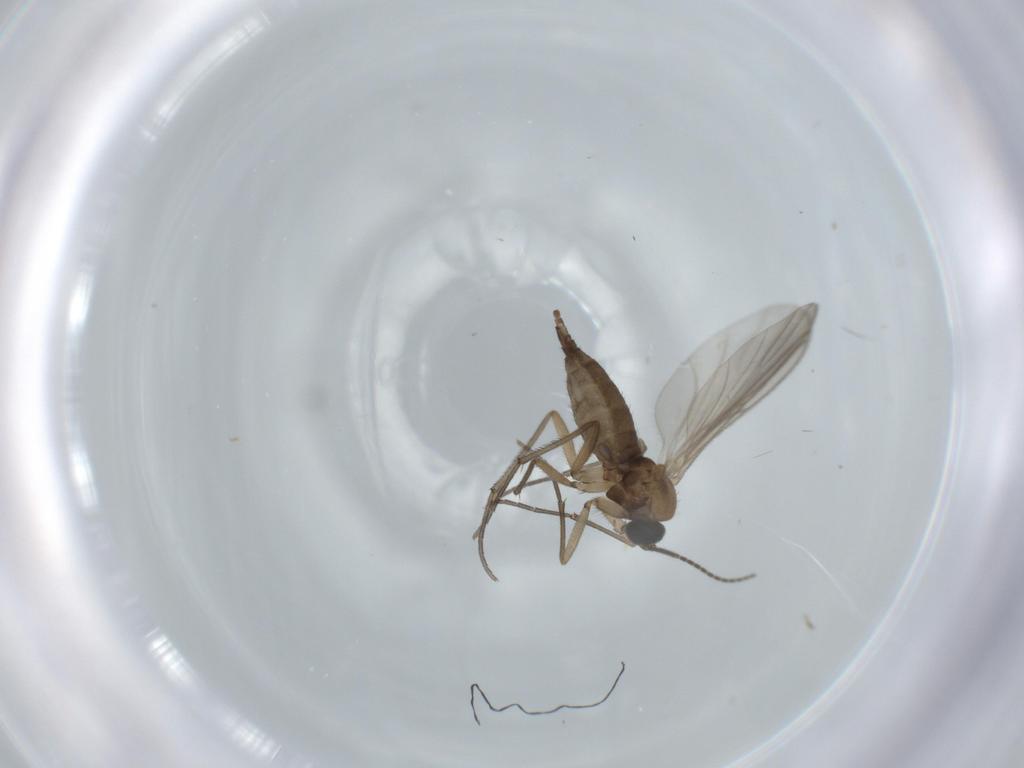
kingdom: Animalia
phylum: Arthropoda
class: Insecta
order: Diptera
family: Sciaridae
